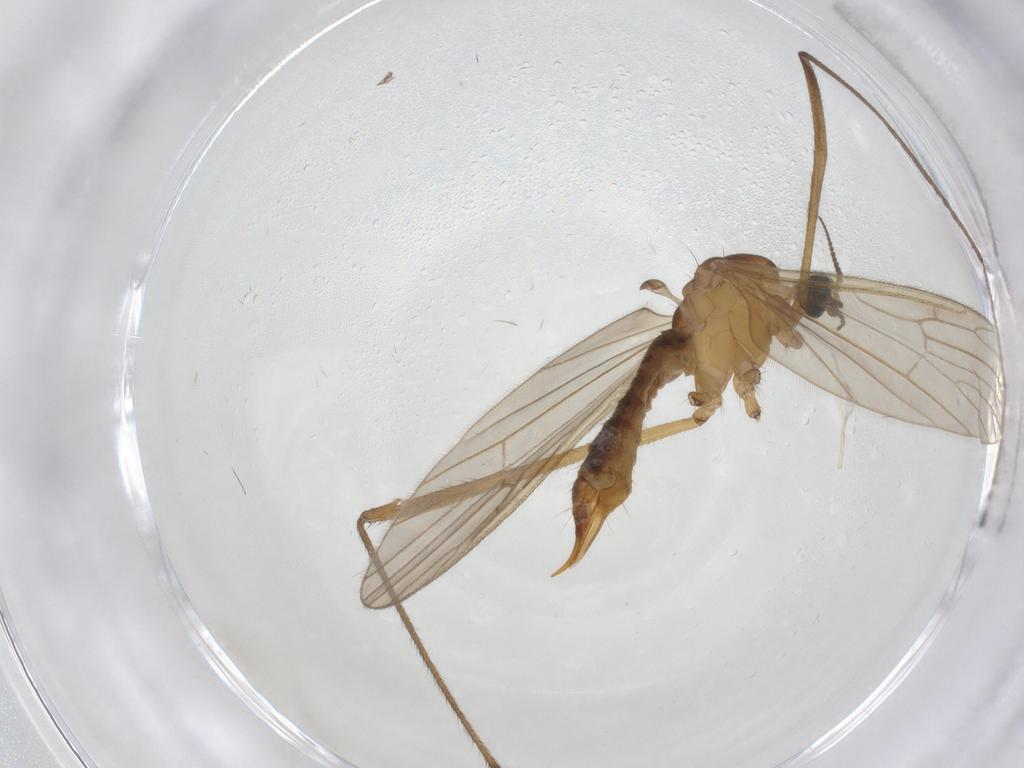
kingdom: Animalia
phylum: Arthropoda
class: Insecta
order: Diptera
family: Limoniidae
